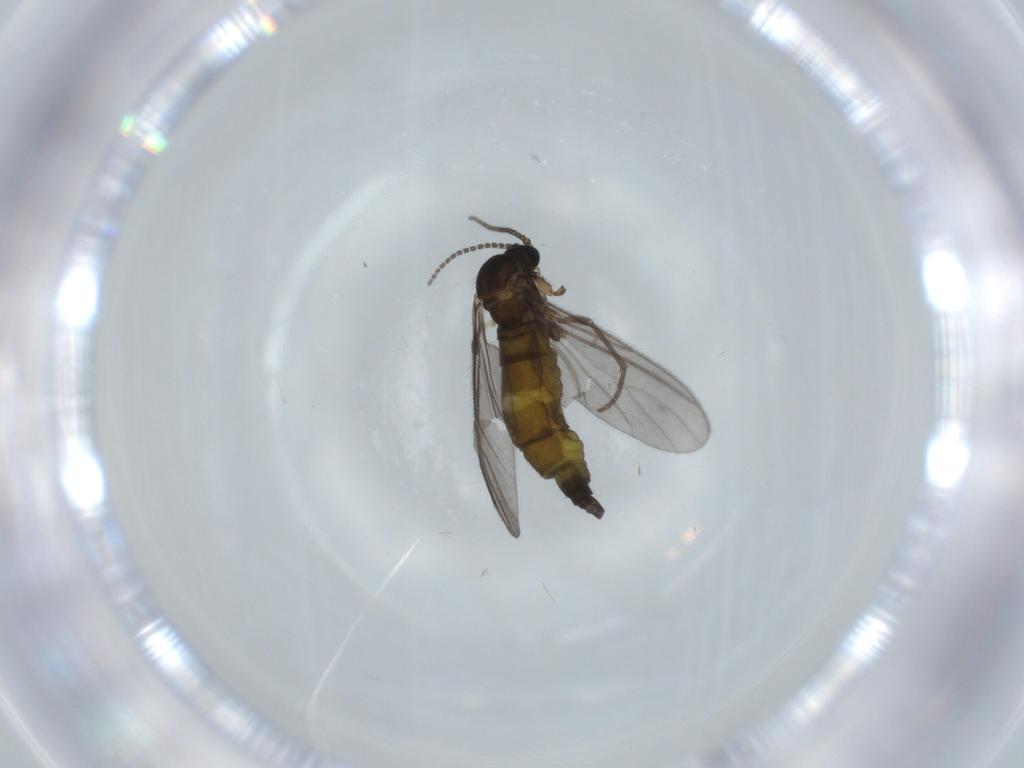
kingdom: Animalia
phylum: Arthropoda
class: Insecta
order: Diptera
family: Sciaridae
